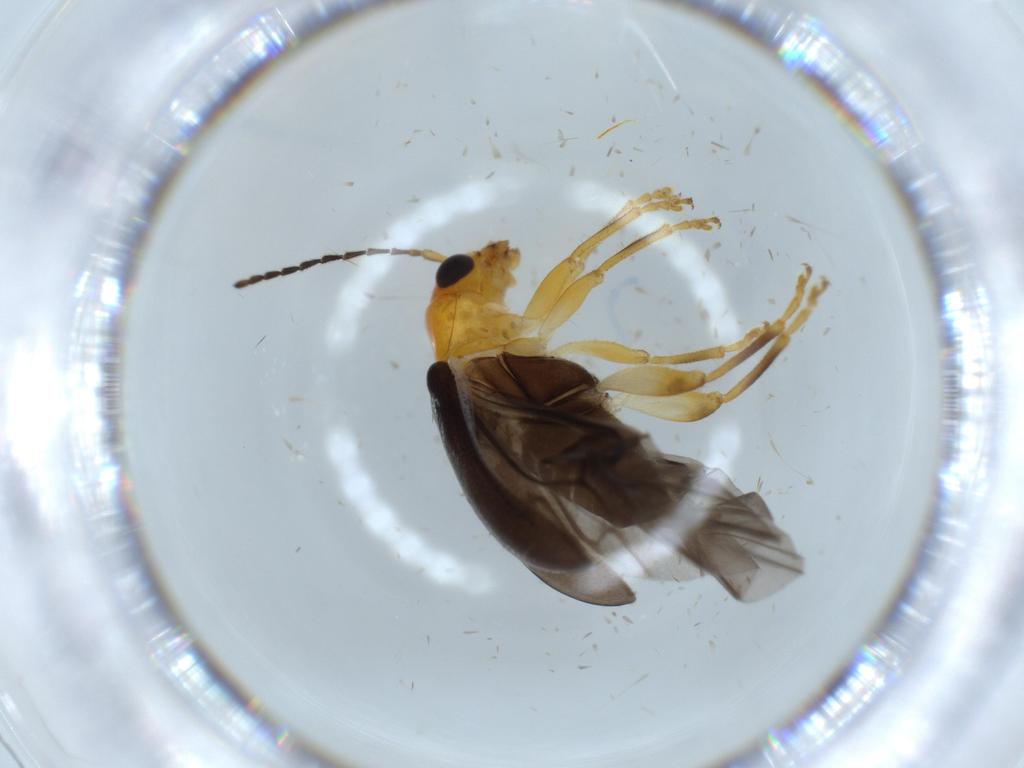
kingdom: Animalia
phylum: Arthropoda
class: Insecta
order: Coleoptera
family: Chrysomelidae
